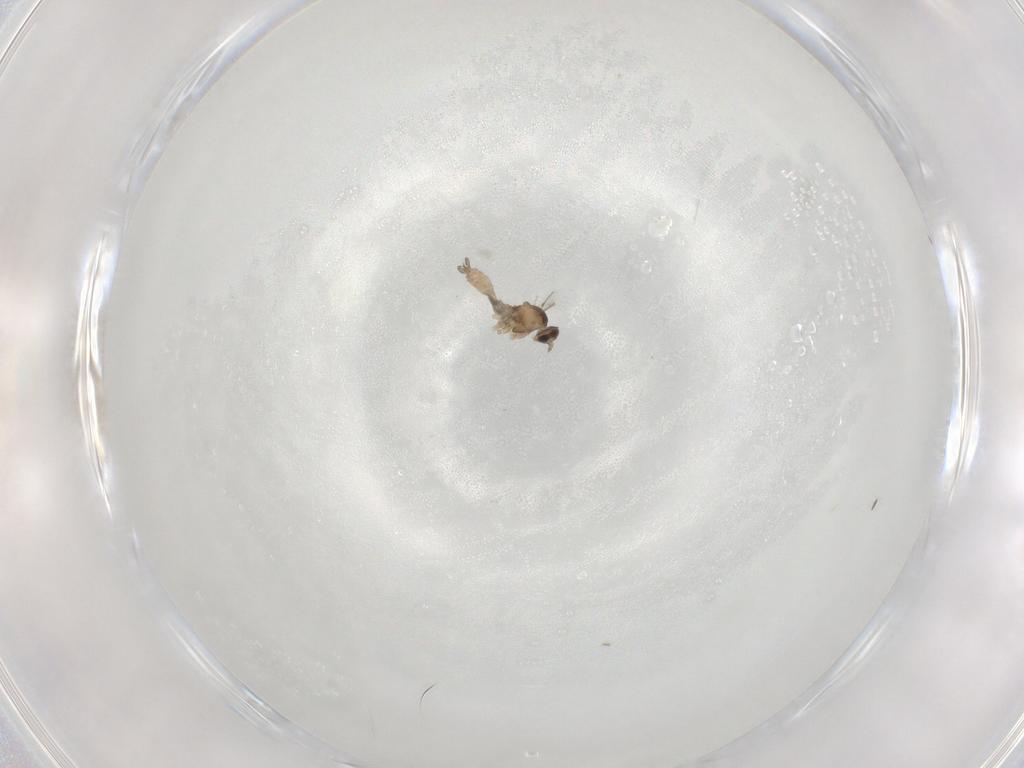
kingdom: Animalia
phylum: Arthropoda
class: Insecta
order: Diptera
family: Cecidomyiidae
